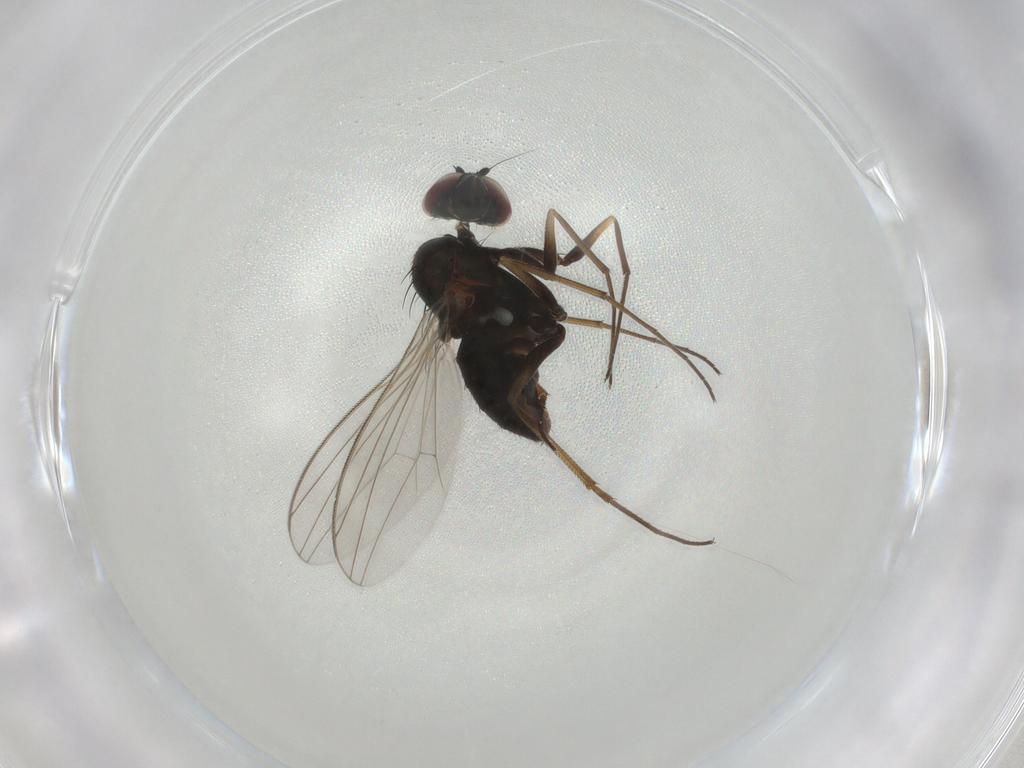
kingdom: Animalia
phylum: Arthropoda
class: Insecta
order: Diptera
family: Dolichopodidae
